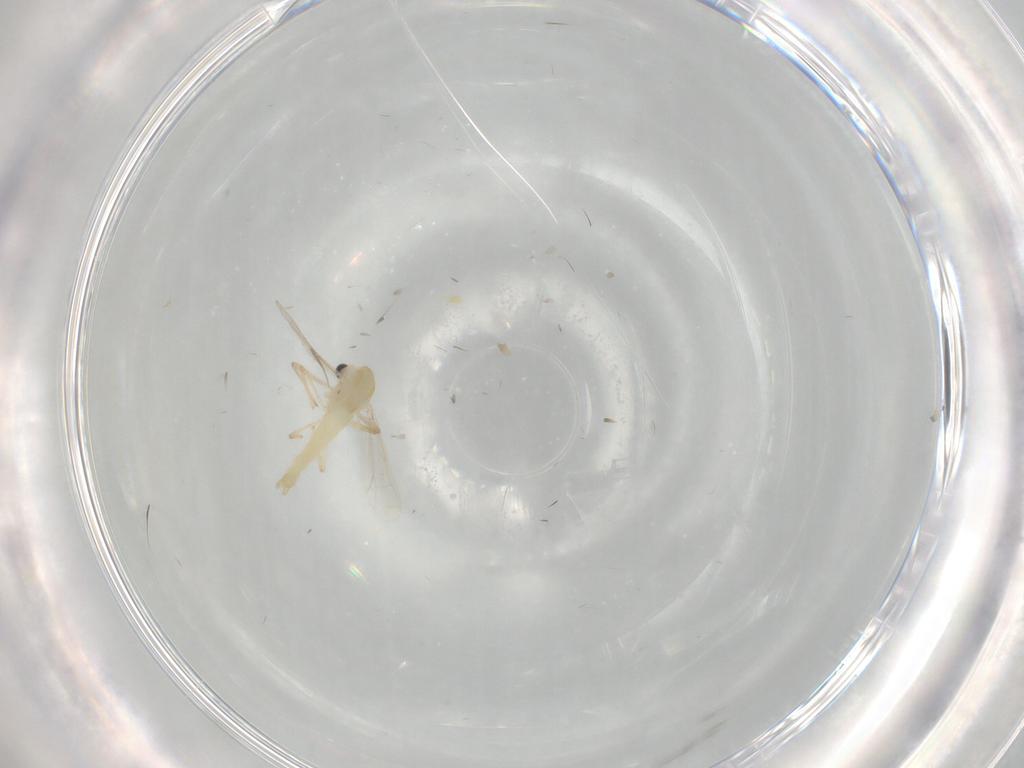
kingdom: Animalia
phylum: Arthropoda
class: Insecta
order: Diptera
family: Chironomidae
